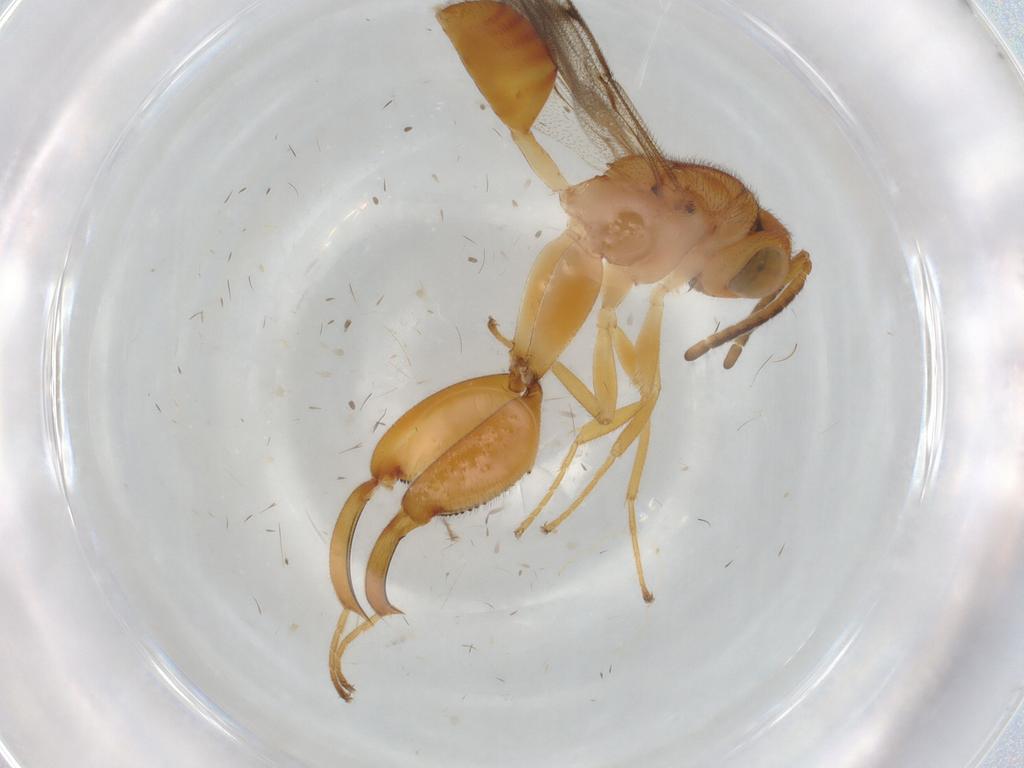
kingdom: Animalia
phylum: Arthropoda
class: Insecta
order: Hymenoptera
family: Chalcididae
